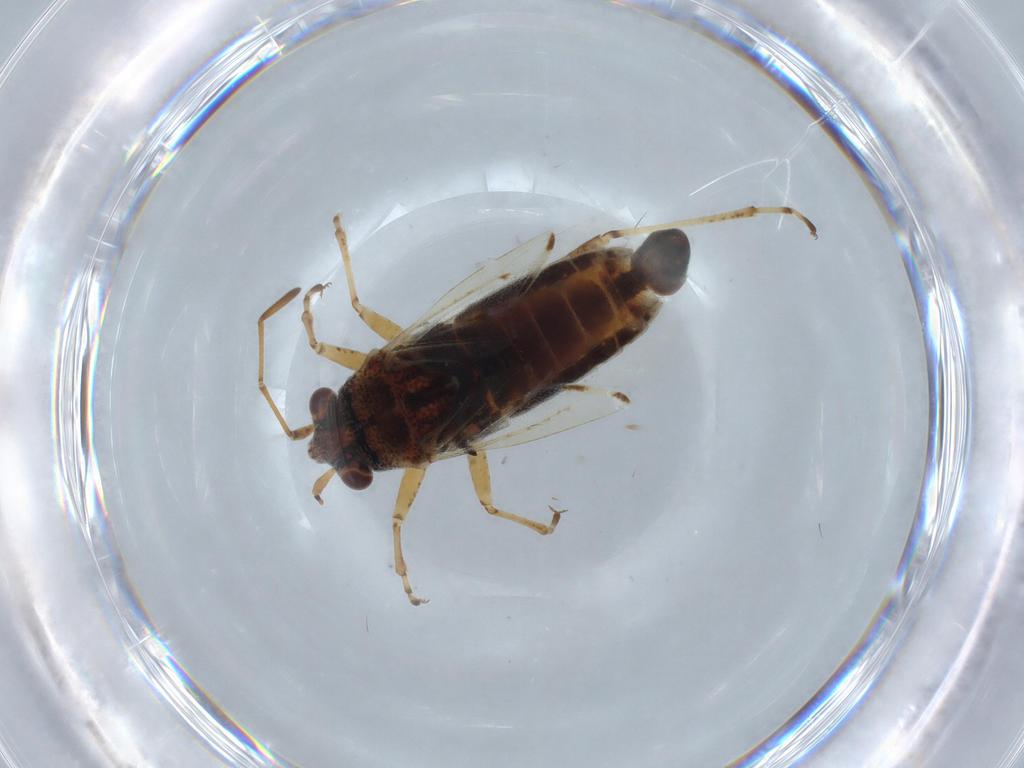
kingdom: Animalia
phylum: Arthropoda
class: Insecta
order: Hemiptera
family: Lygaeidae
